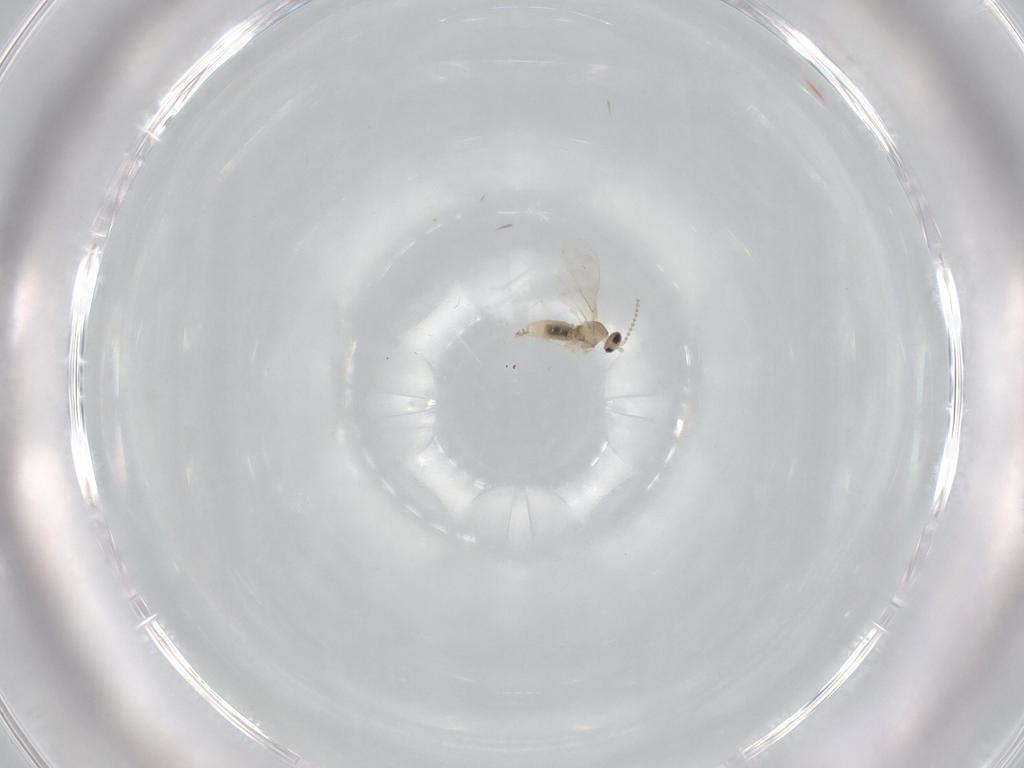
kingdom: Animalia
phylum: Arthropoda
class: Insecta
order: Diptera
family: Cecidomyiidae
